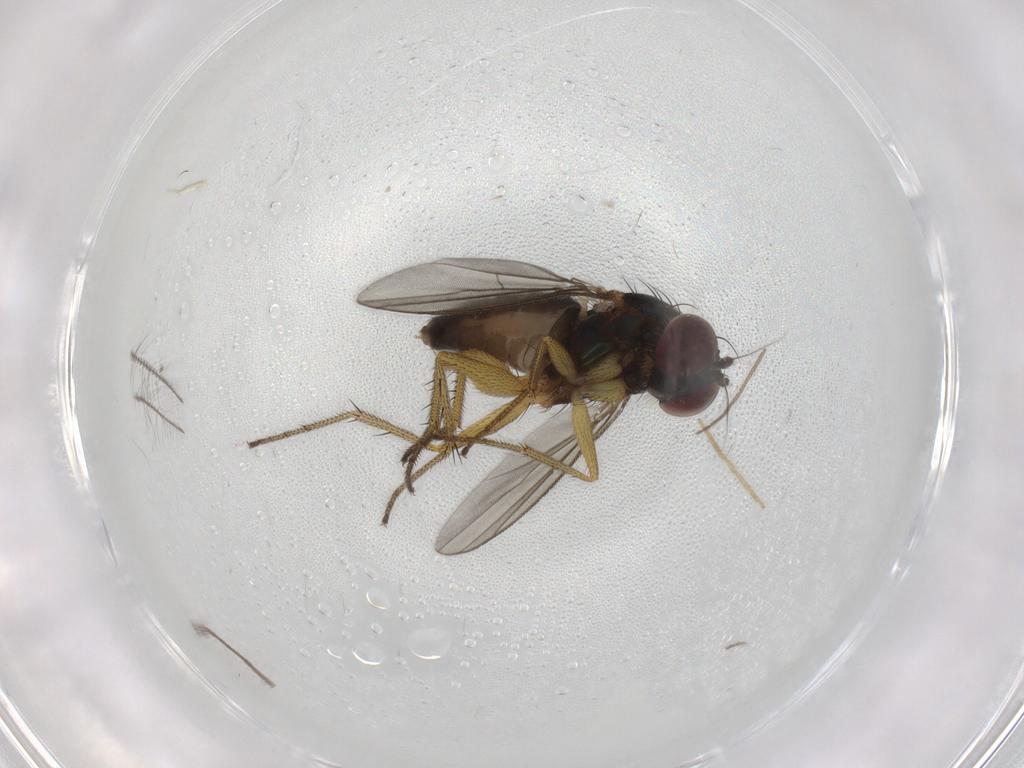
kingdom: Animalia
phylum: Arthropoda
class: Insecta
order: Diptera
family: Chironomidae
